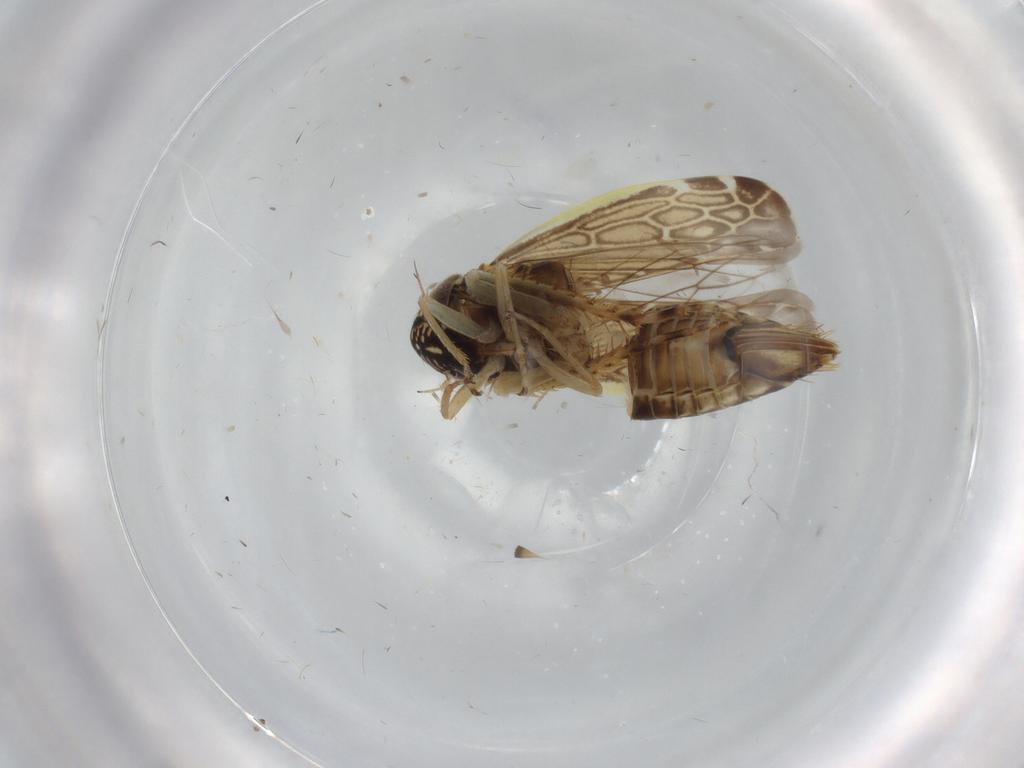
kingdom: Animalia
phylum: Arthropoda
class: Insecta
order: Hemiptera
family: Cicadellidae
